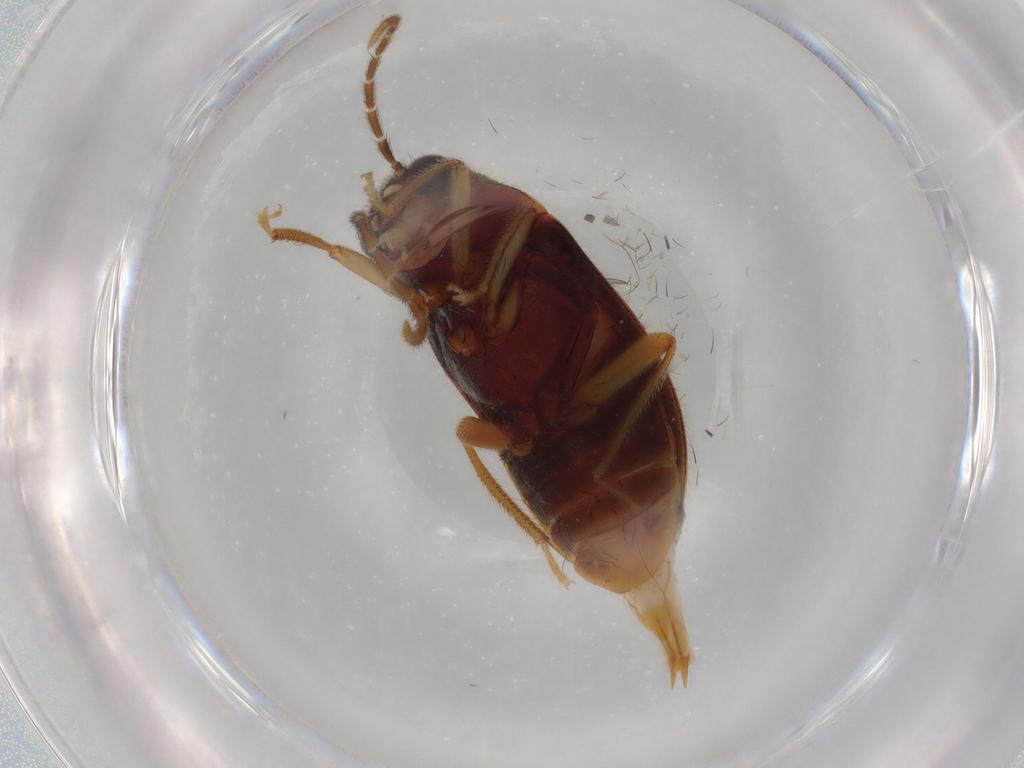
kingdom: Animalia
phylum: Arthropoda
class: Insecta
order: Coleoptera
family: Ptilodactylidae
